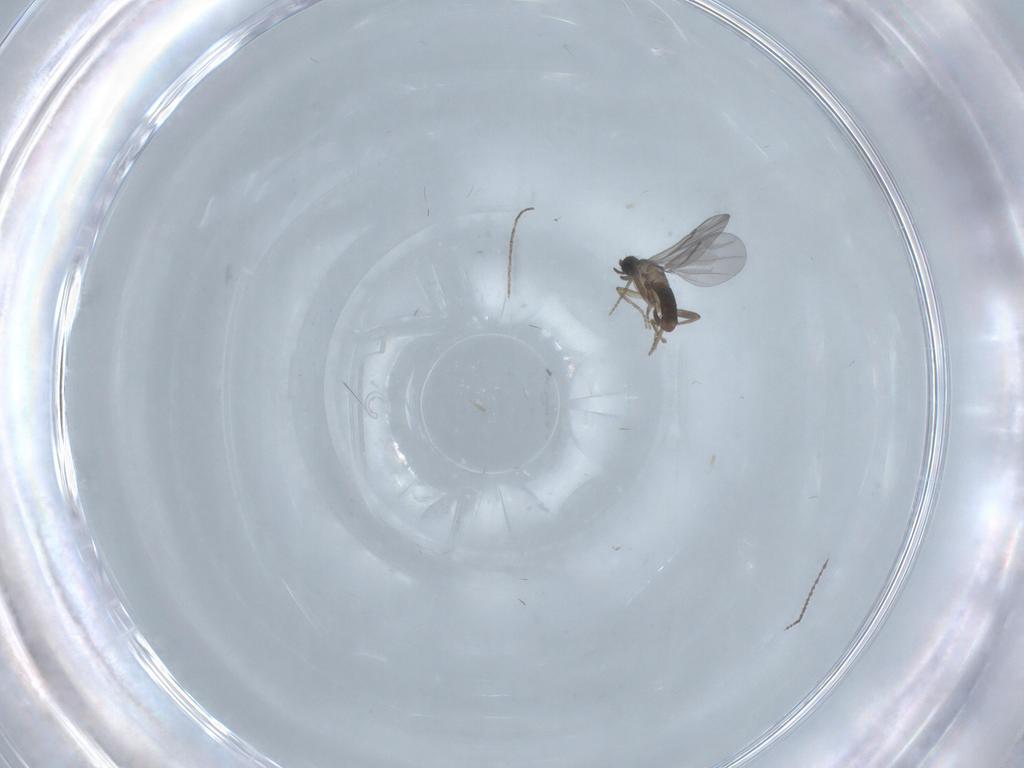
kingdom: Animalia
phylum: Arthropoda
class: Insecta
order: Diptera
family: Cecidomyiidae
